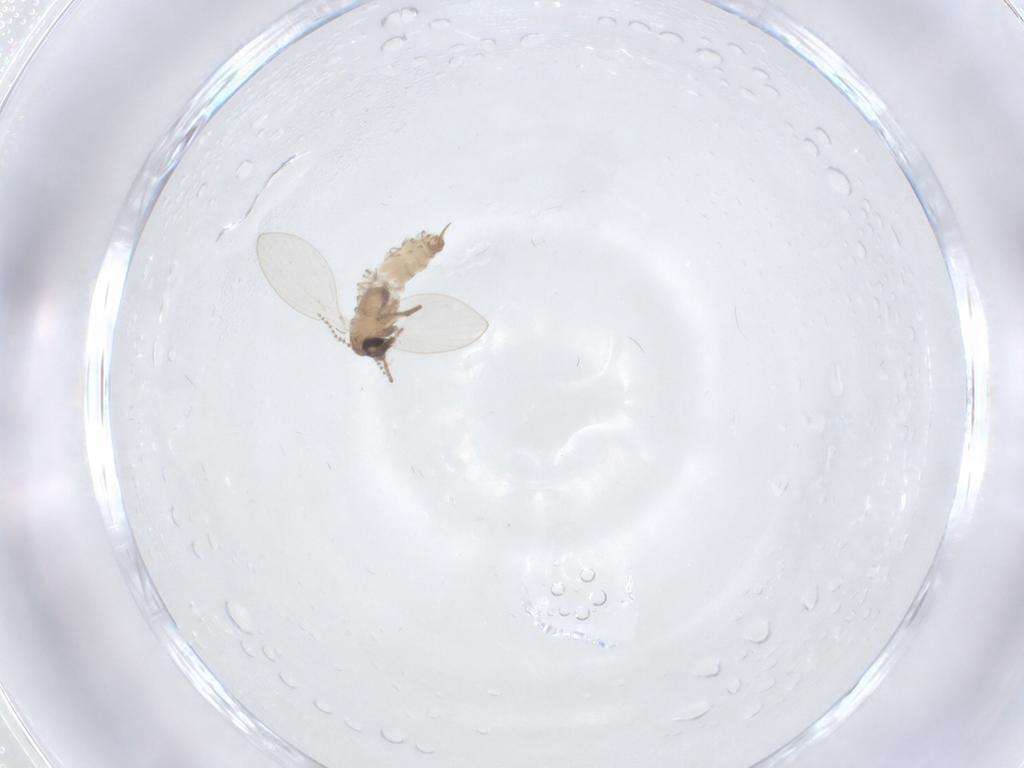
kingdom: Animalia
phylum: Arthropoda
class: Insecta
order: Diptera
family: Psychodidae
